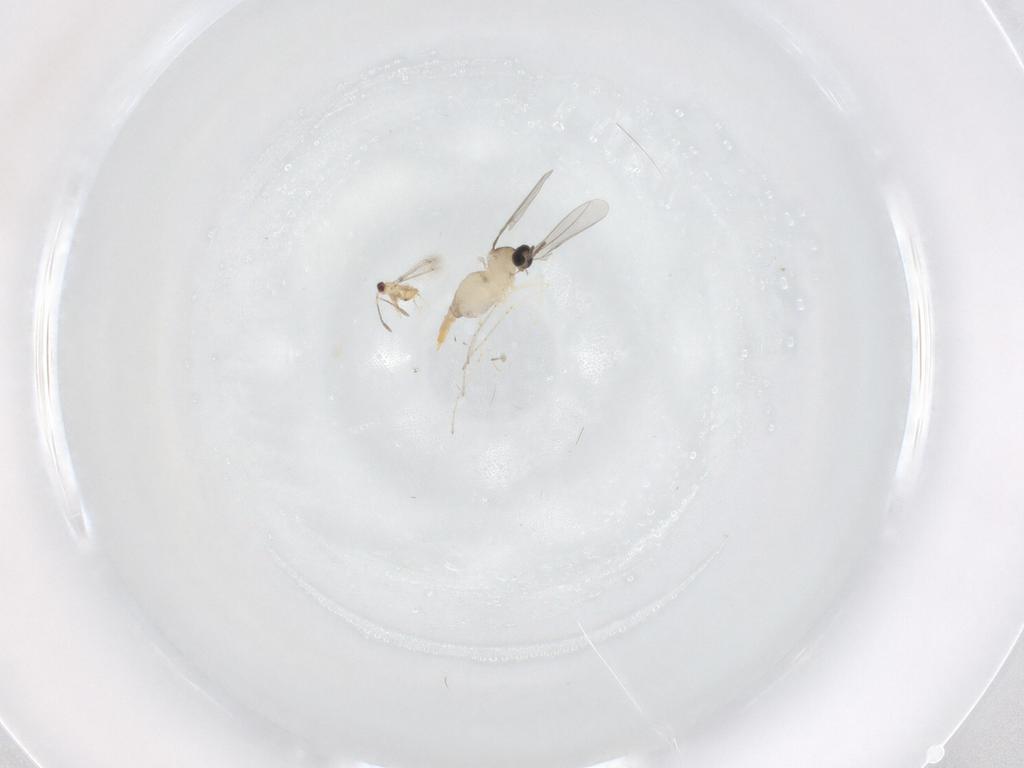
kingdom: Animalia
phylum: Arthropoda
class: Insecta
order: Diptera
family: Cecidomyiidae
